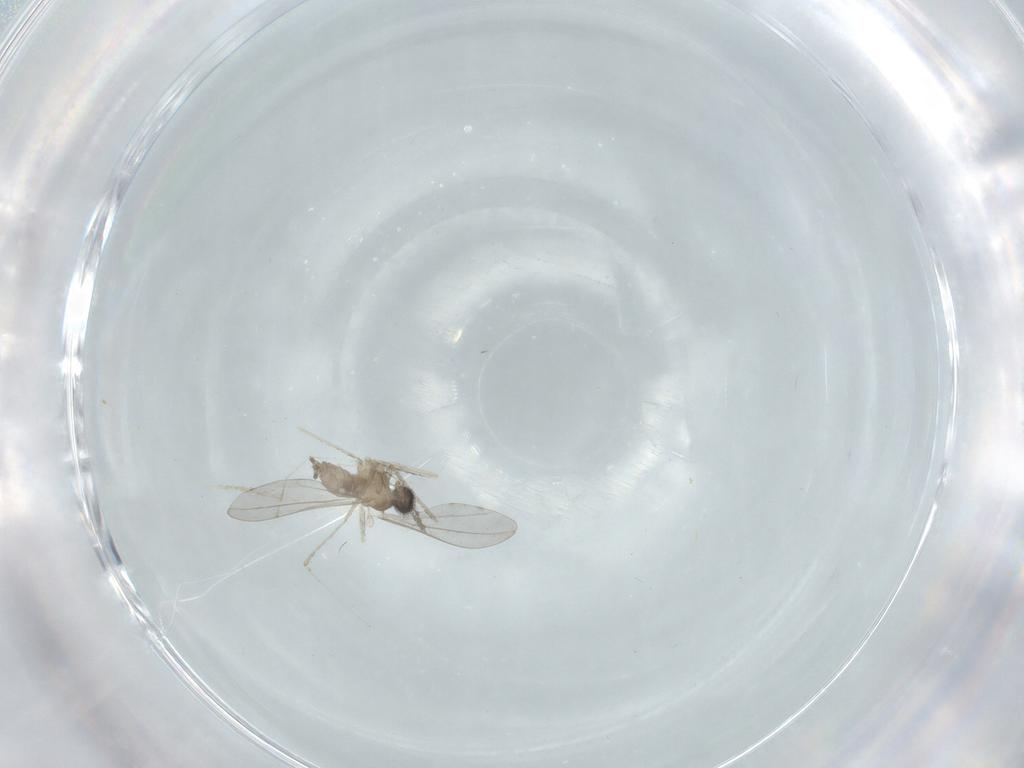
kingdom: Animalia
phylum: Arthropoda
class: Insecta
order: Diptera
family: Cecidomyiidae
